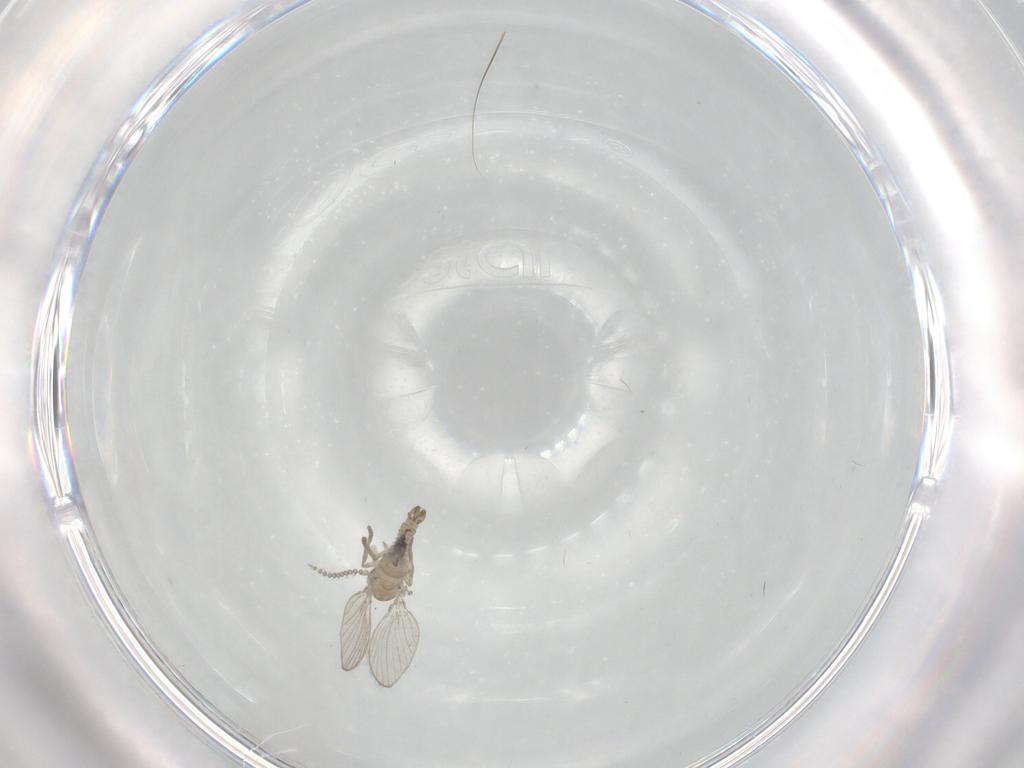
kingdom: Animalia
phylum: Arthropoda
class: Insecta
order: Diptera
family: Psychodidae
